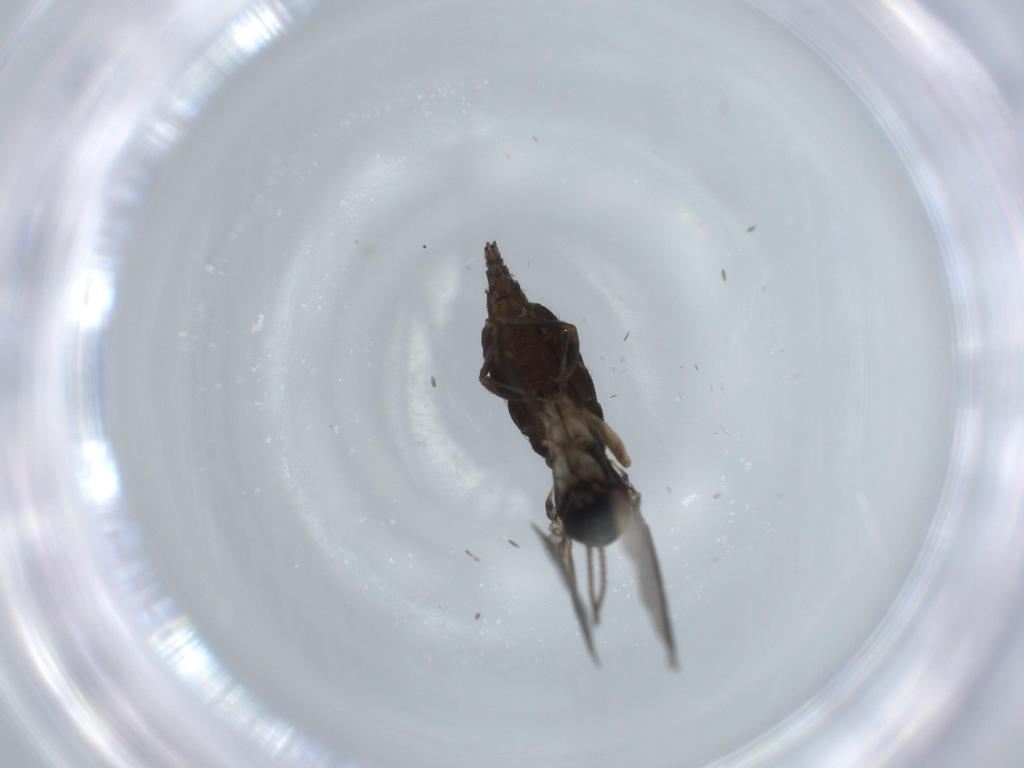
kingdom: Animalia
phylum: Arthropoda
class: Insecta
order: Diptera
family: Sciaridae
